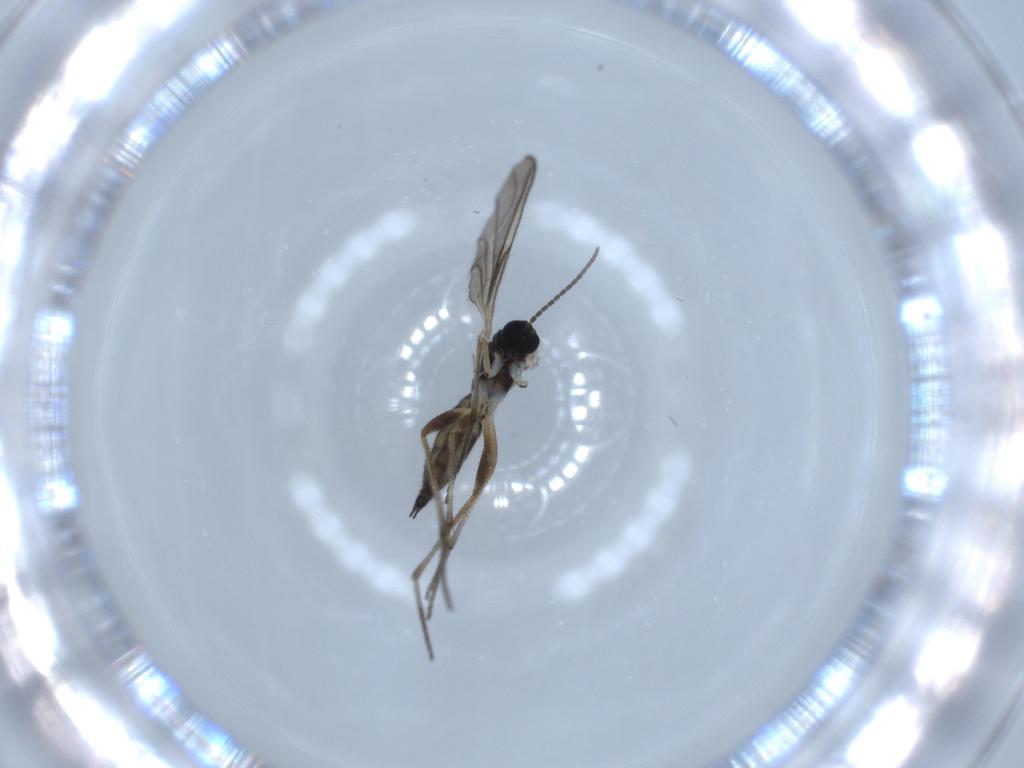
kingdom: Animalia
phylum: Arthropoda
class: Insecta
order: Diptera
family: Sciaridae
